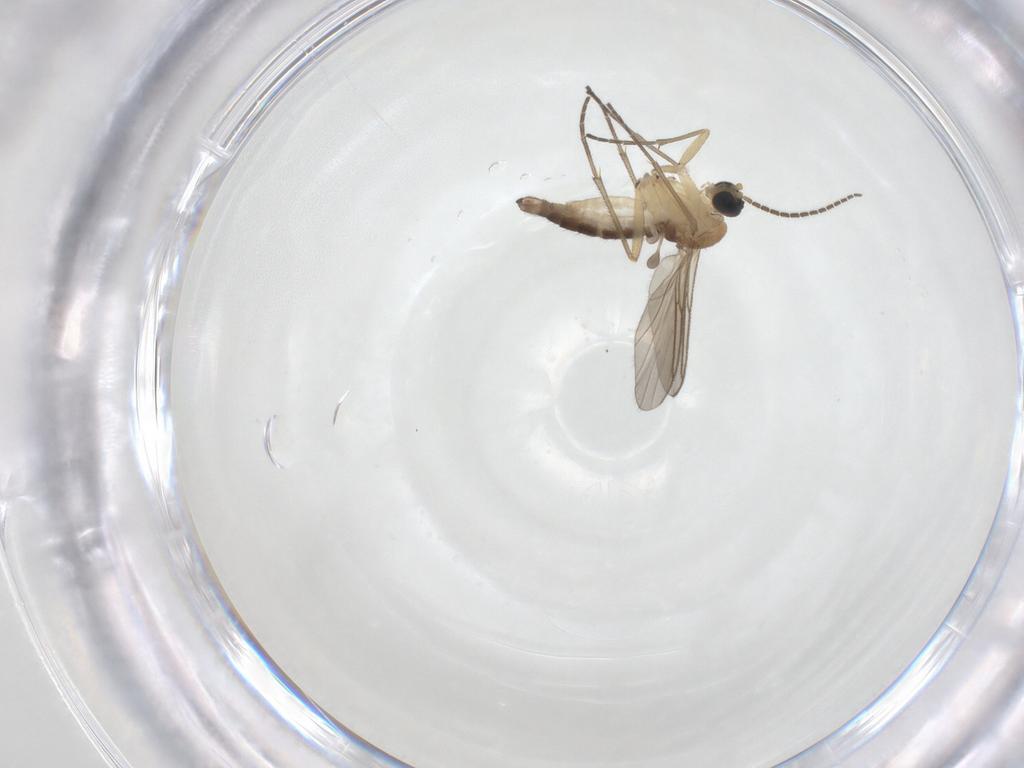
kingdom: Animalia
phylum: Arthropoda
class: Insecta
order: Diptera
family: Sciaridae
